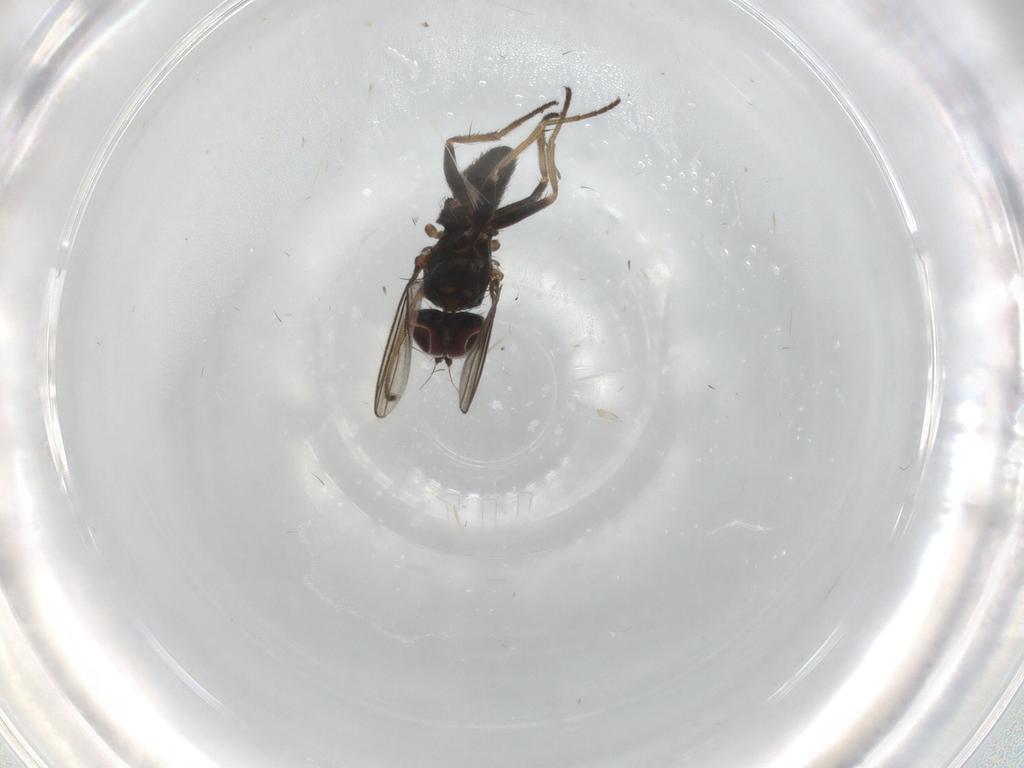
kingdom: Animalia
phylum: Arthropoda
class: Insecta
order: Diptera
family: Dolichopodidae
